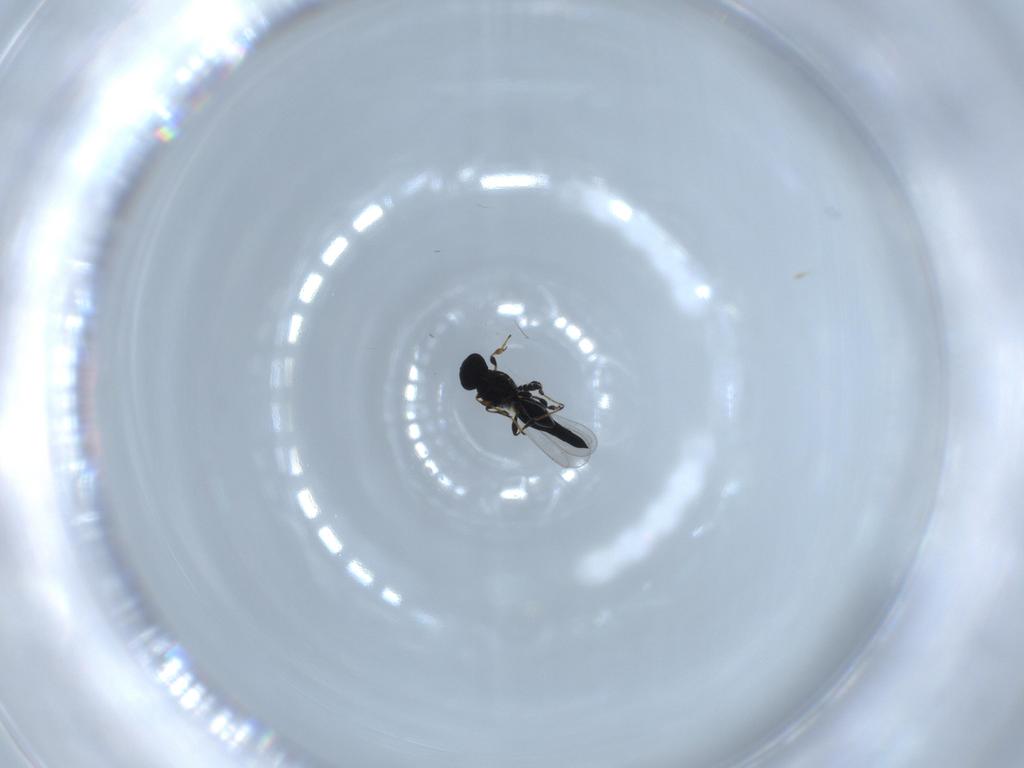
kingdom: Animalia
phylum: Arthropoda
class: Insecta
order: Hymenoptera
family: Platygastridae
